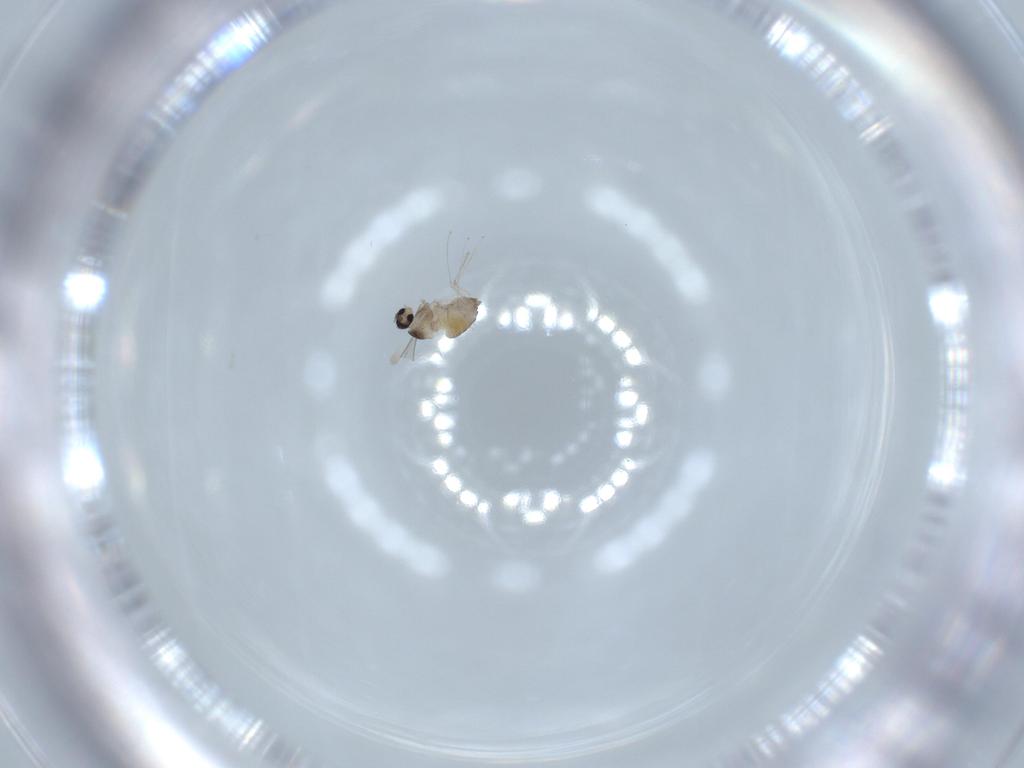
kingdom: Animalia
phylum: Arthropoda
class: Insecta
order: Diptera
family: Cecidomyiidae
